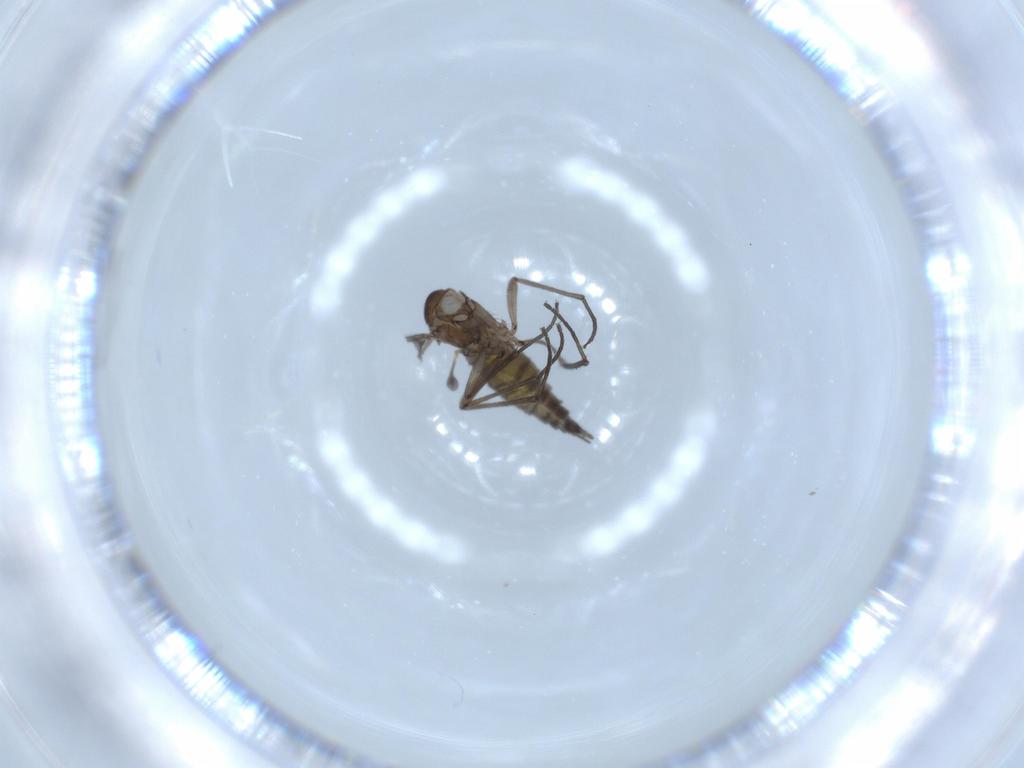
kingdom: Animalia
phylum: Arthropoda
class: Insecta
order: Diptera
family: Sciaridae
